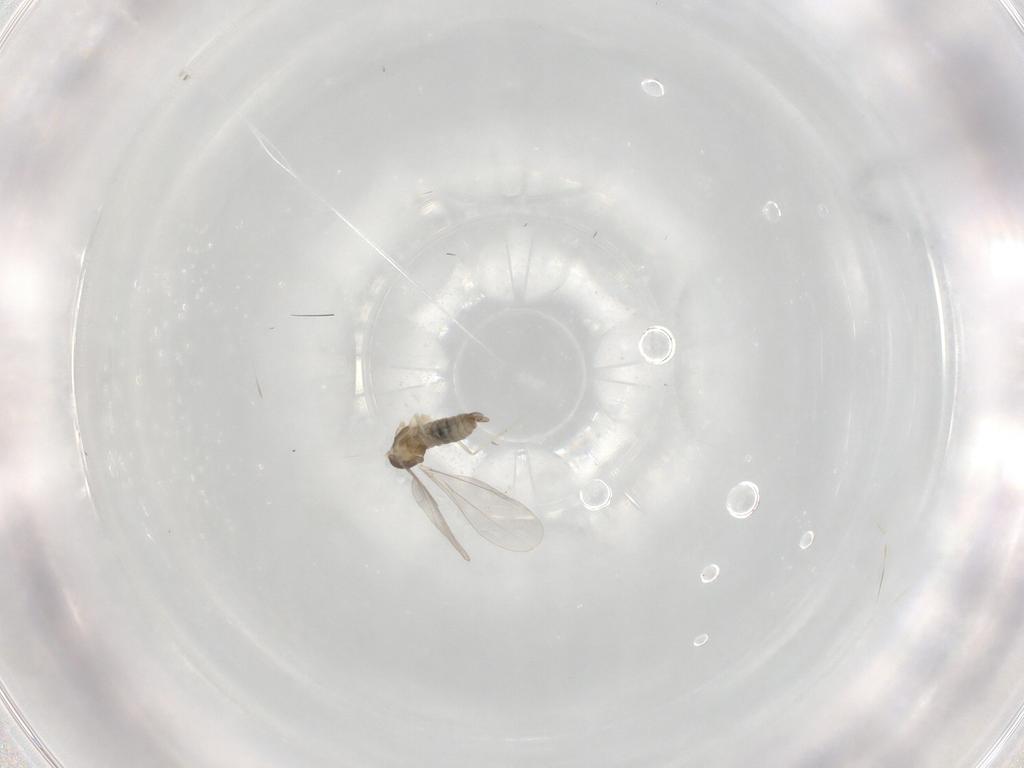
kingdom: Animalia
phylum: Arthropoda
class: Insecta
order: Diptera
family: Cecidomyiidae
